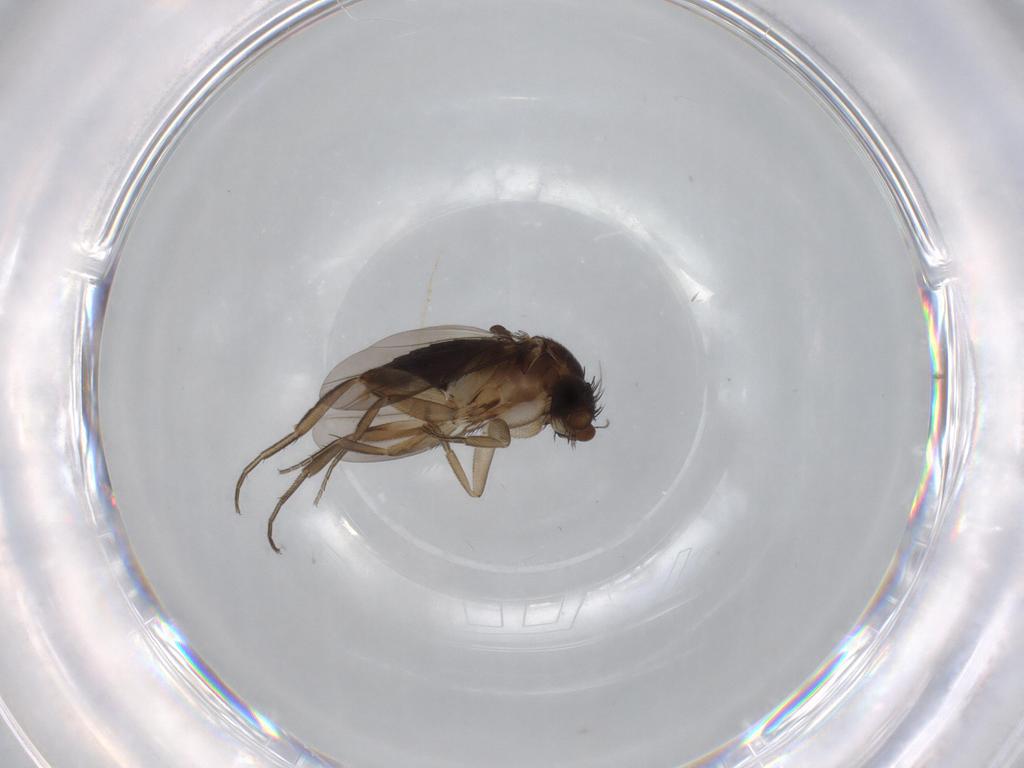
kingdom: Animalia
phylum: Arthropoda
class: Insecta
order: Diptera
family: Phoridae
